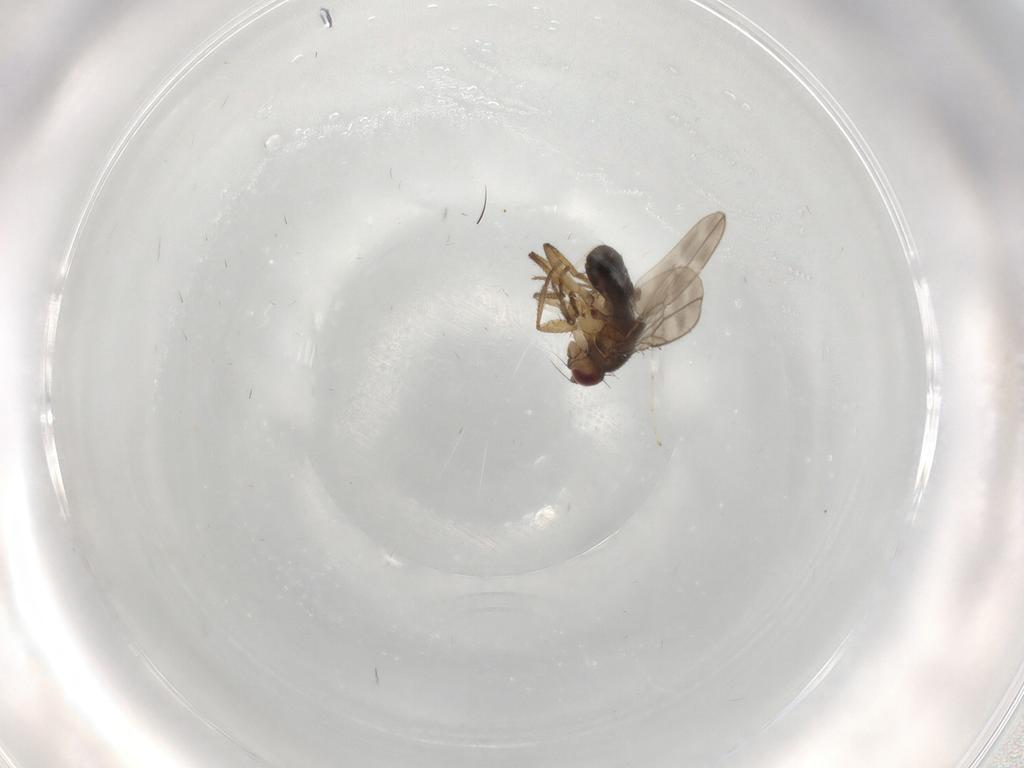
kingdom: Animalia
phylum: Arthropoda
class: Insecta
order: Diptera
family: Cecidomyiidae
